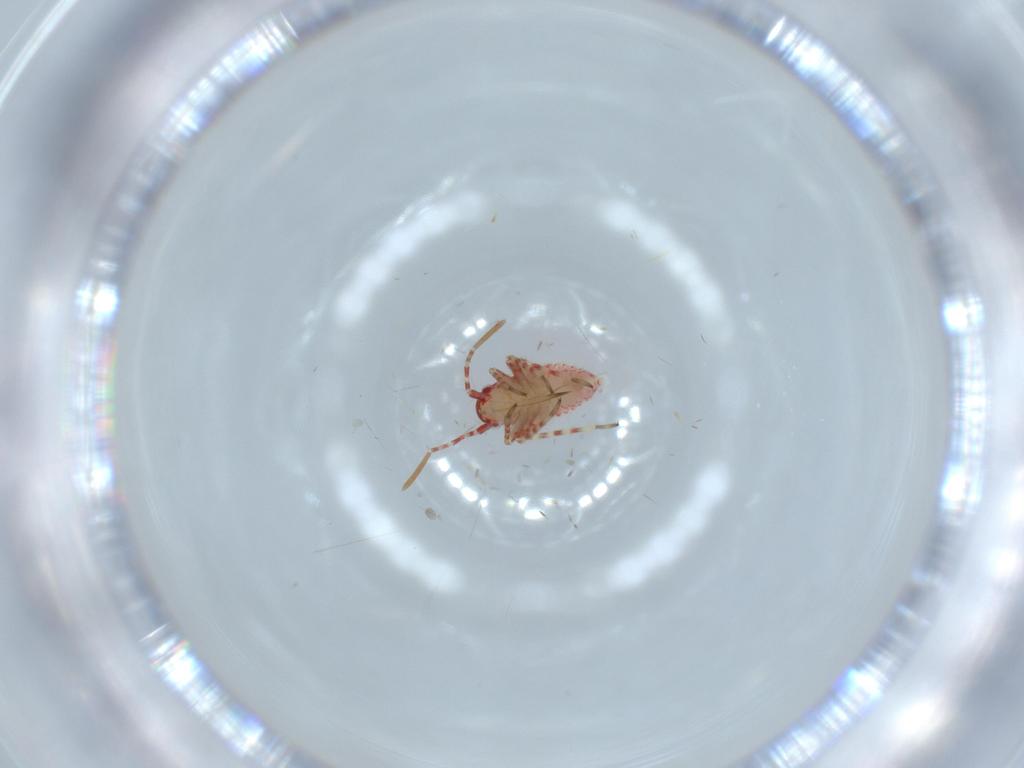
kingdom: Animalia
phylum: Arthropoda
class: Insecta
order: Hemiptera
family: Miridae
